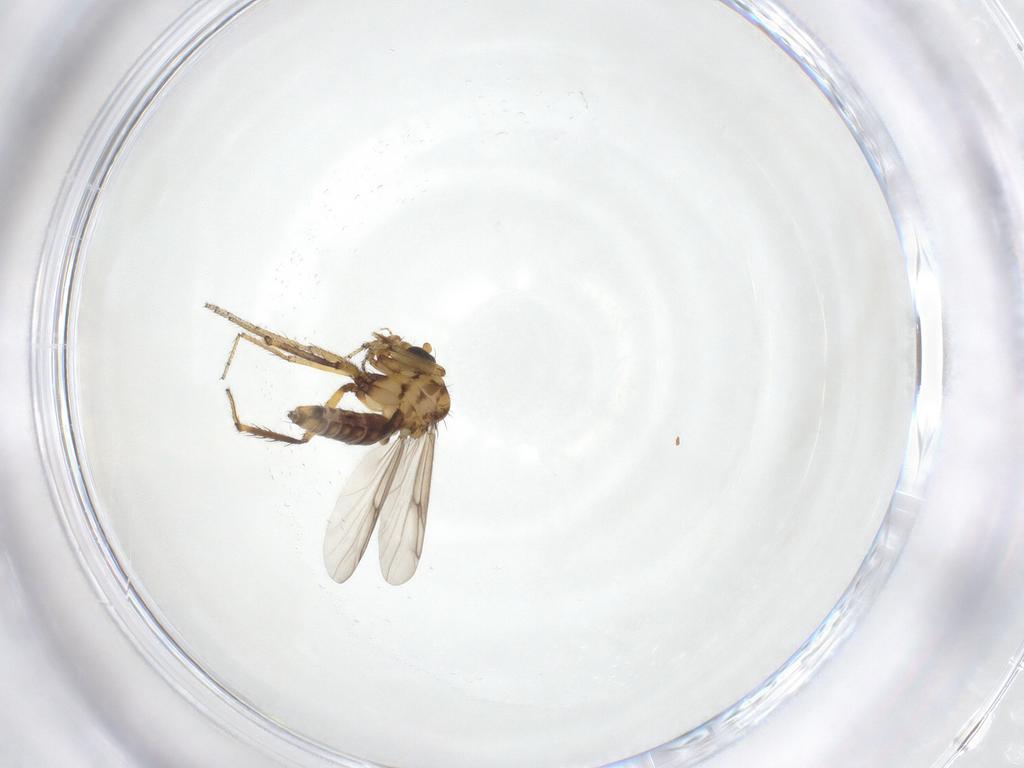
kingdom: Animalia
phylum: Arthropoda
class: Insecta
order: Diptera
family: Ceratopogonidae
